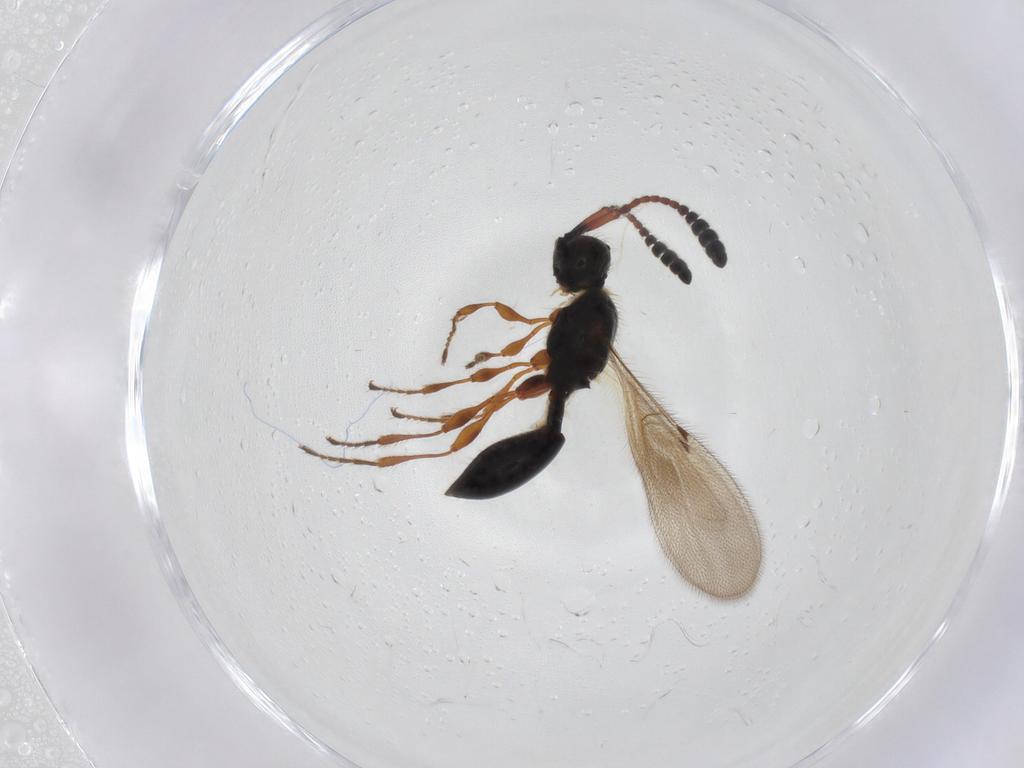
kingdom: Animalia
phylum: Arthropoda
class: Insecta
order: Hymenoptera
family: Diapriidae
